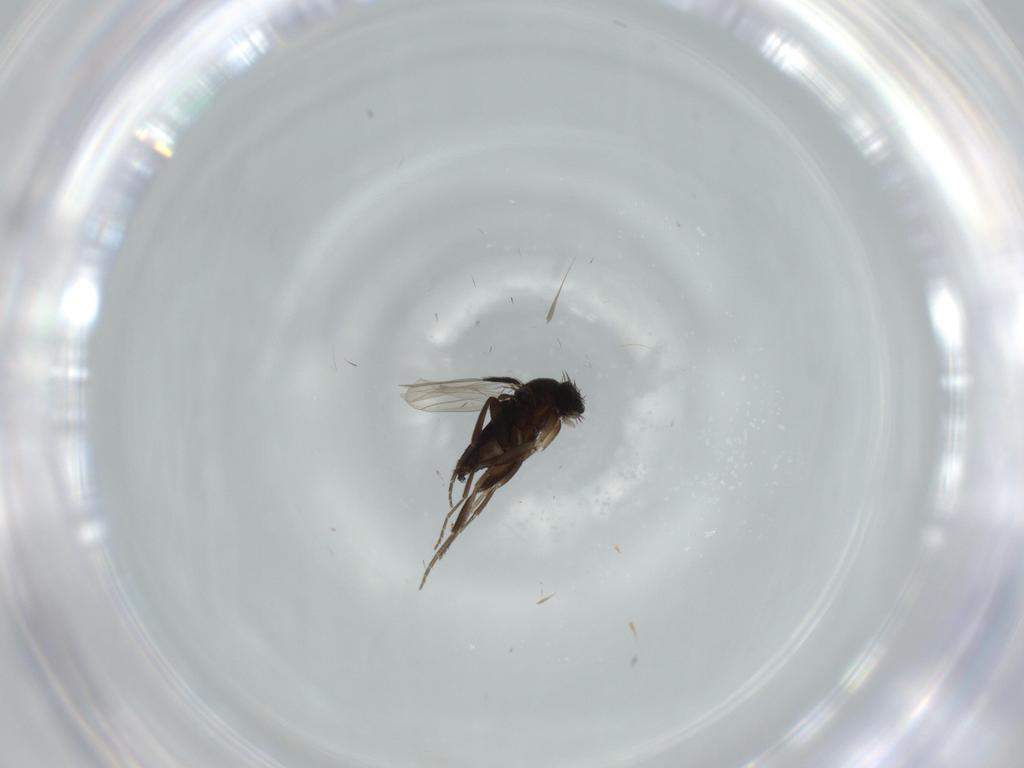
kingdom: Animalia
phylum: Arthropoda
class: Insecta
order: Diptera
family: Phoridae
